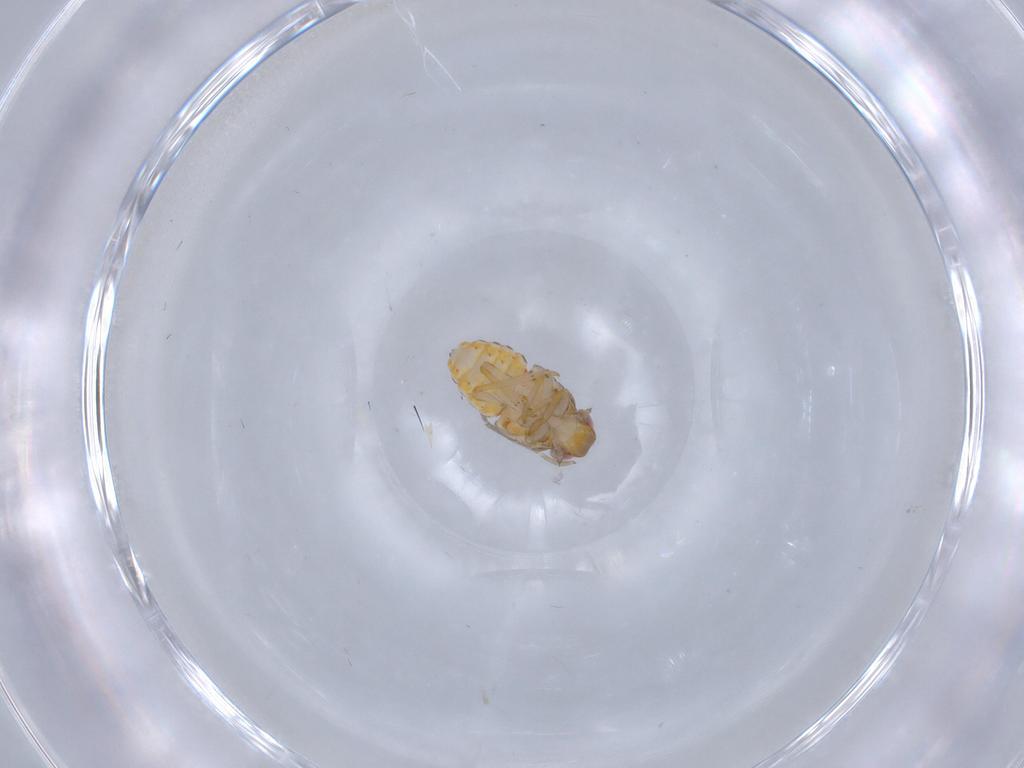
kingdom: Animalia
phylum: Arthropoda
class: Insecta
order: Hemiptera
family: Issidae
